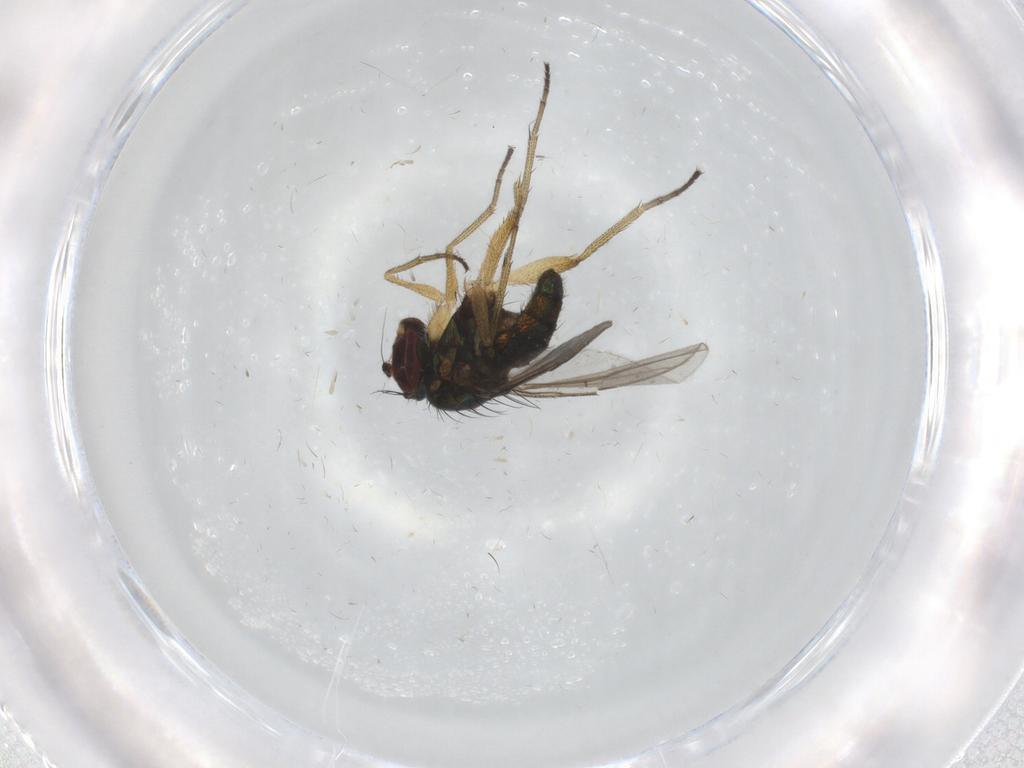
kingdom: Animalia
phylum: Arthropoda
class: Insecta
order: Diptera
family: Dolichopodidae
